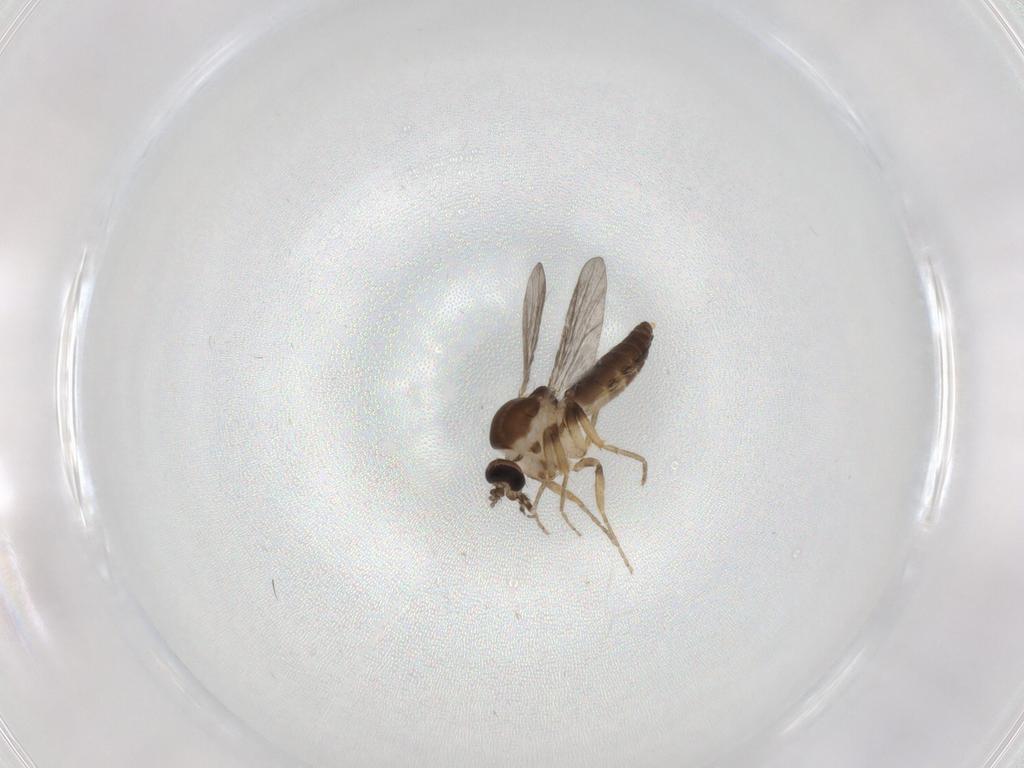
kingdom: Animalia
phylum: Arthropoda
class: Insecta
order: Diptera
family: Ceratopogonidae
